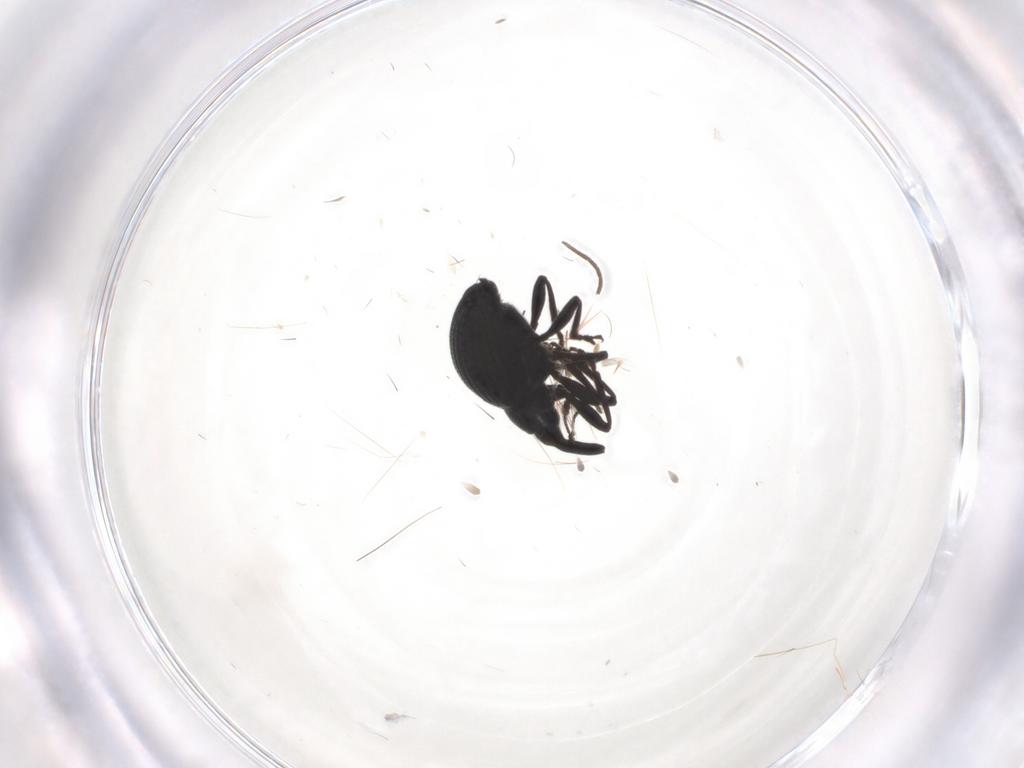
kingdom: Animalia
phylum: Arthropoda
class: Insecta
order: Coleoptera
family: Brentidae
